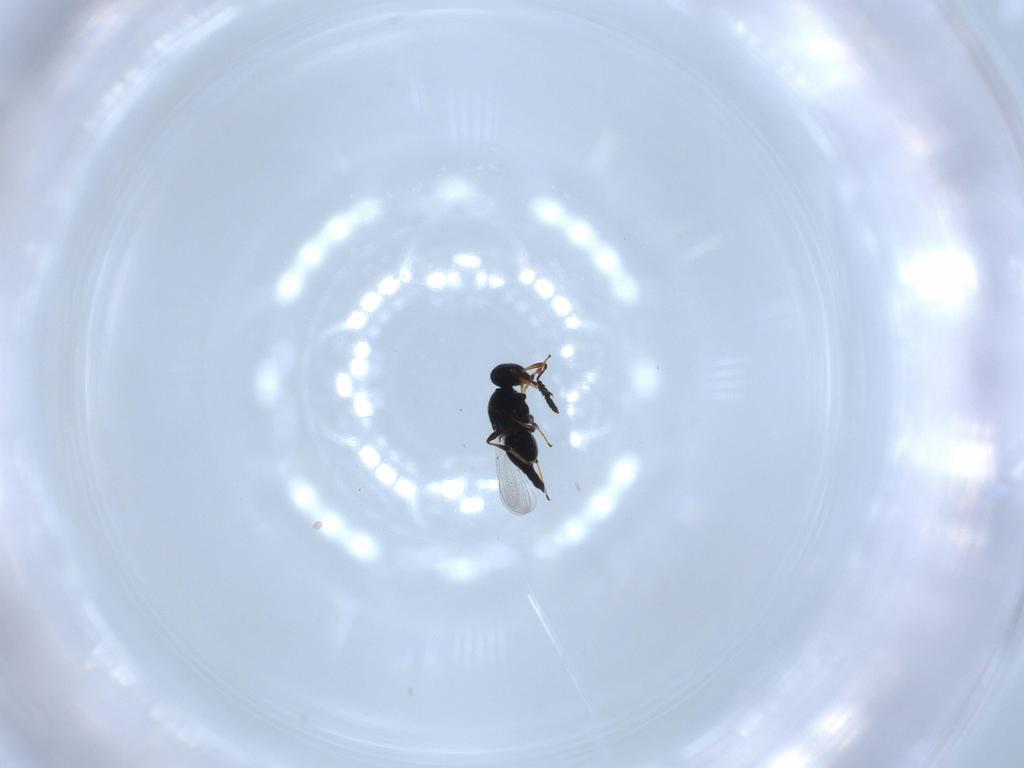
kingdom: Animalia
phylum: Arthropoda
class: Insecta
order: Hymenoptera
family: Platygastridae
